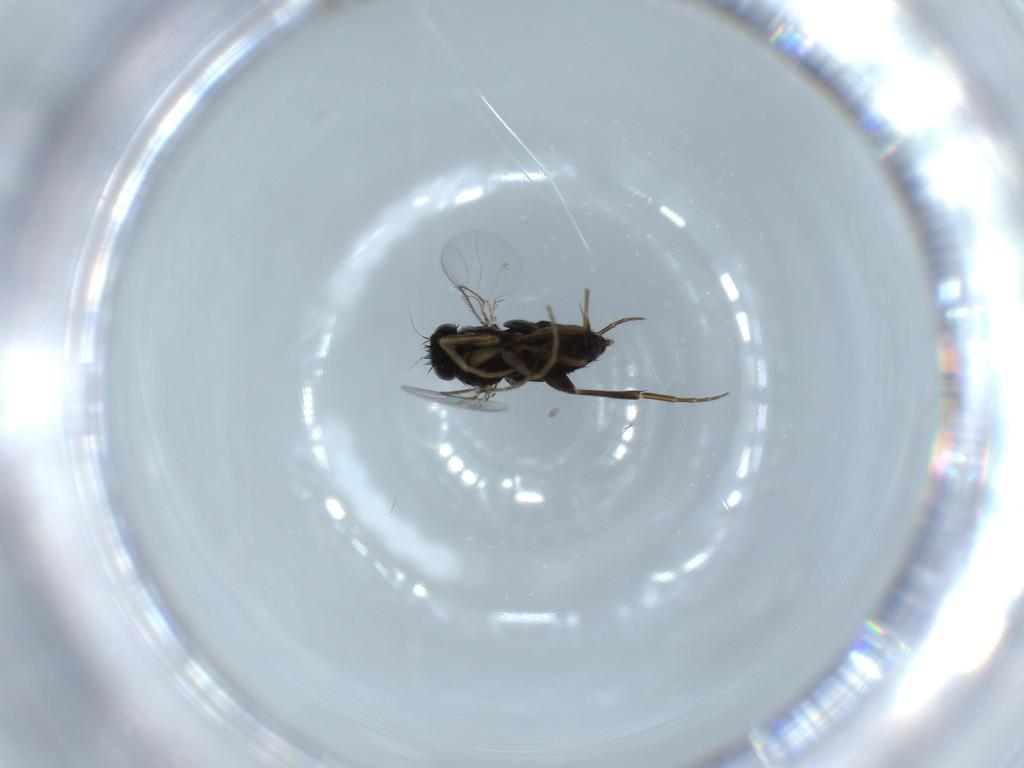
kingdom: Animalia
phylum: Arthropoda
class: Insecta
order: Diptera
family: Phoridae
